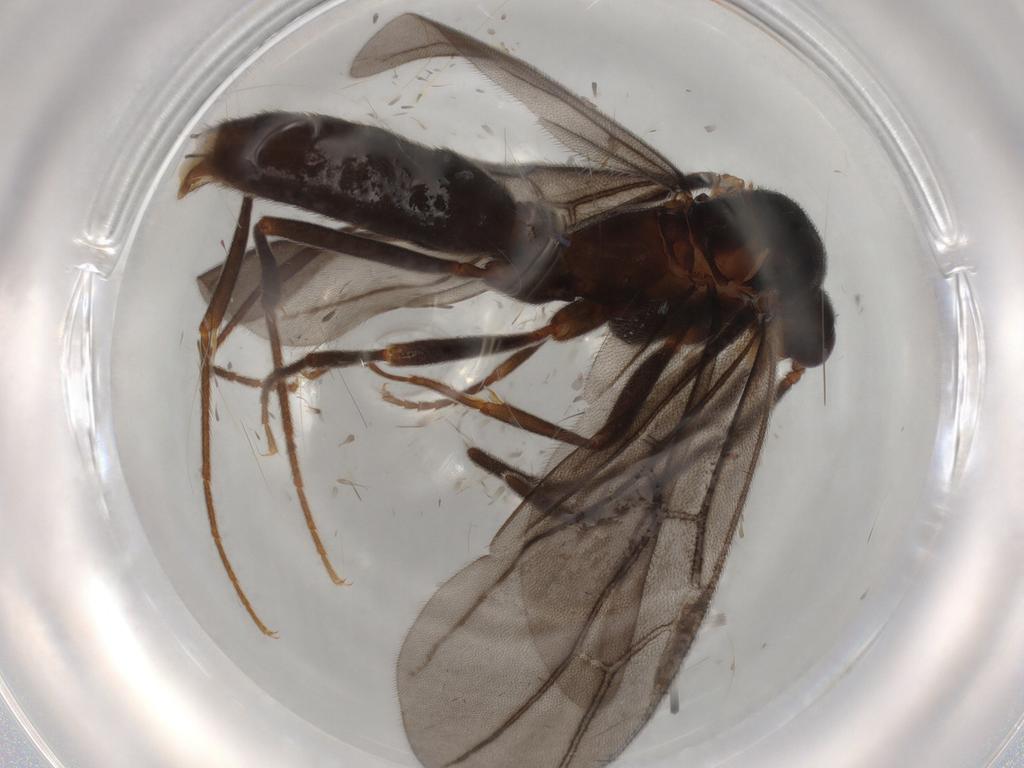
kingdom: Animalia
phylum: Arthropoda
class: Insecta
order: Hymenoptera
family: Formicidae
